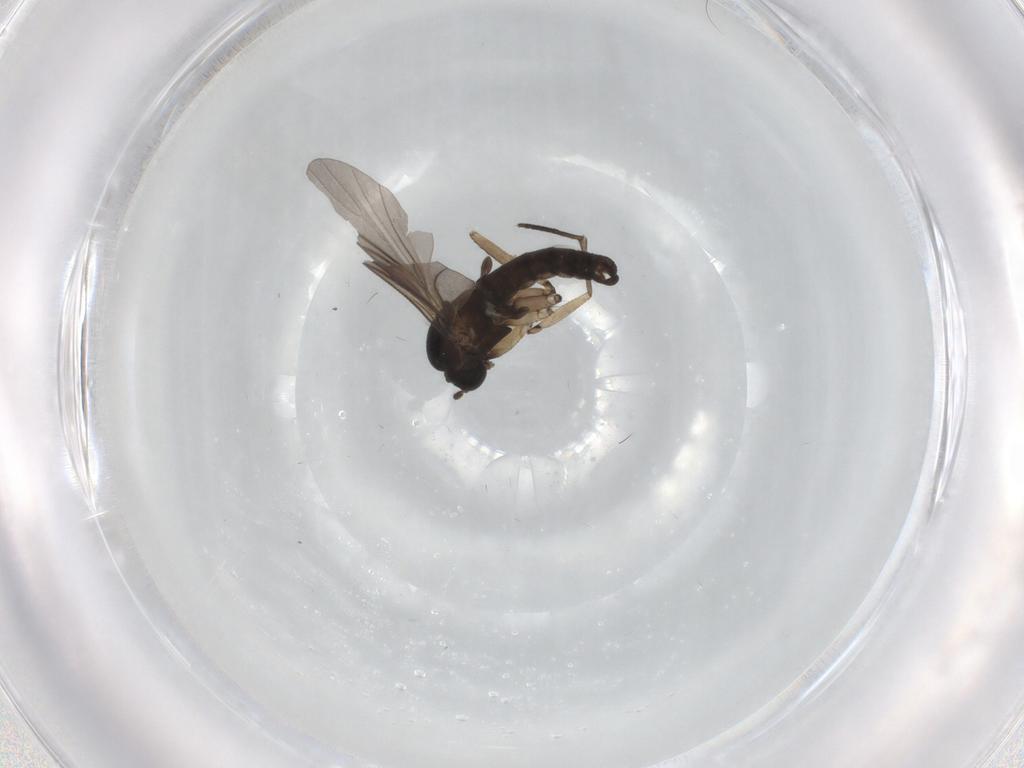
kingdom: Animalia
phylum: Arthropoda
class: Insecta
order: Diptera
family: Sciaridae
